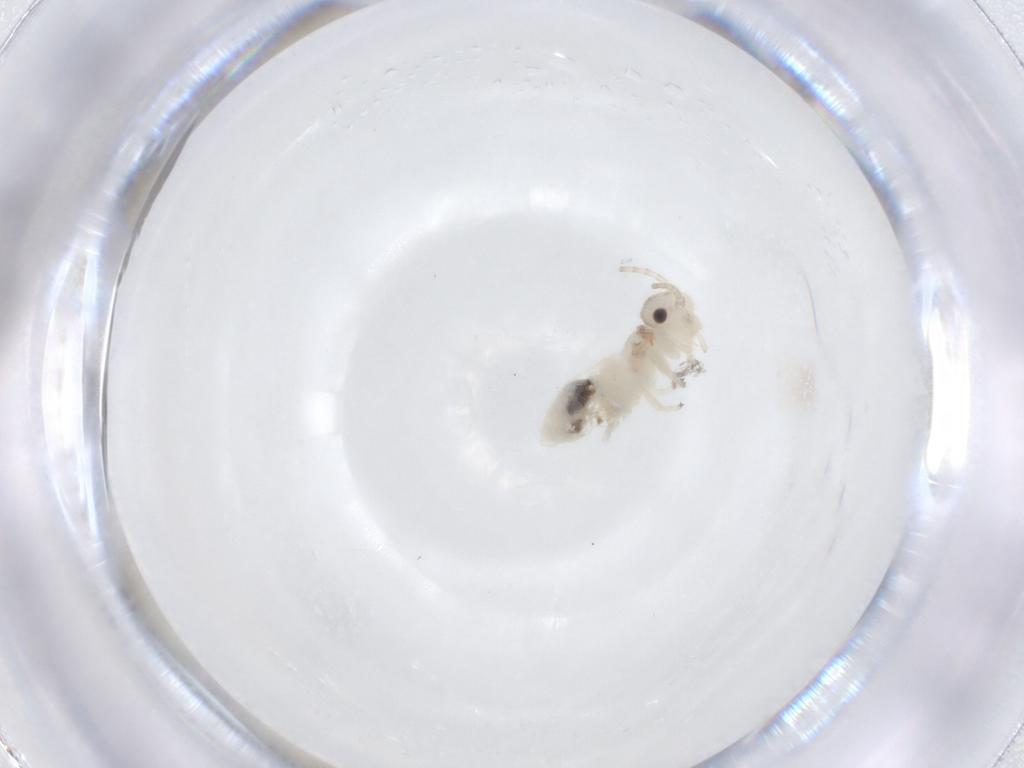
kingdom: Animalia
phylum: Arthropoda
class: Insecta
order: Psocodea
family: Amphipsocidae
